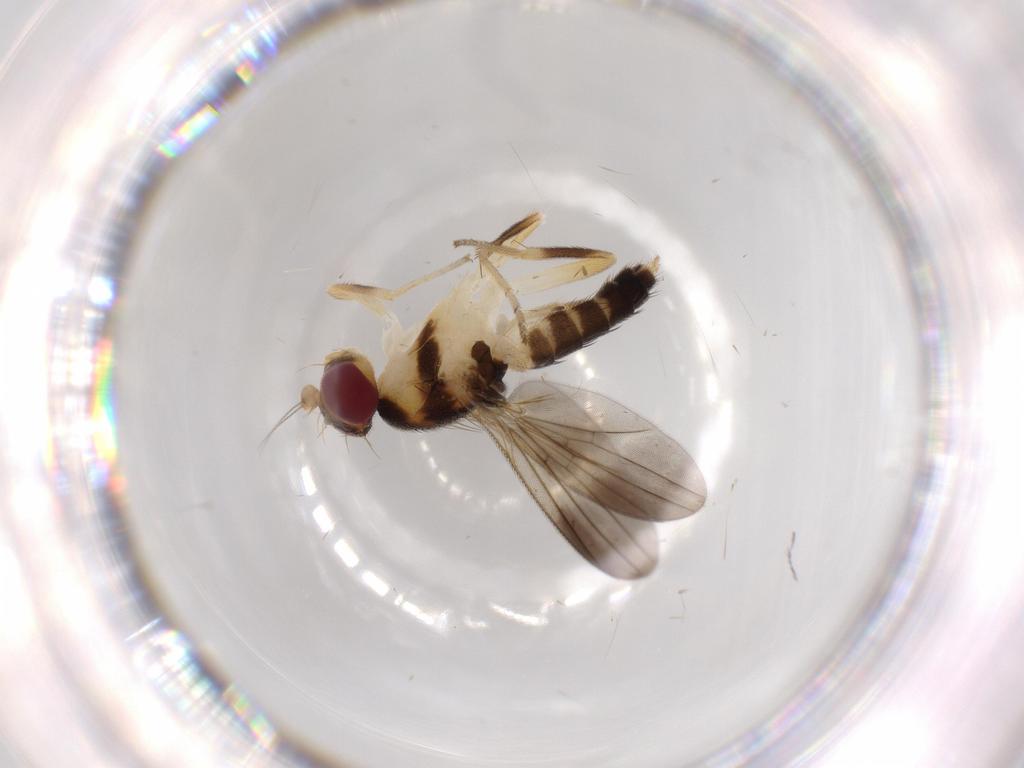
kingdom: Animalia
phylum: Arthropoda
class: Insecta
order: Diptera
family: Clusiidae
